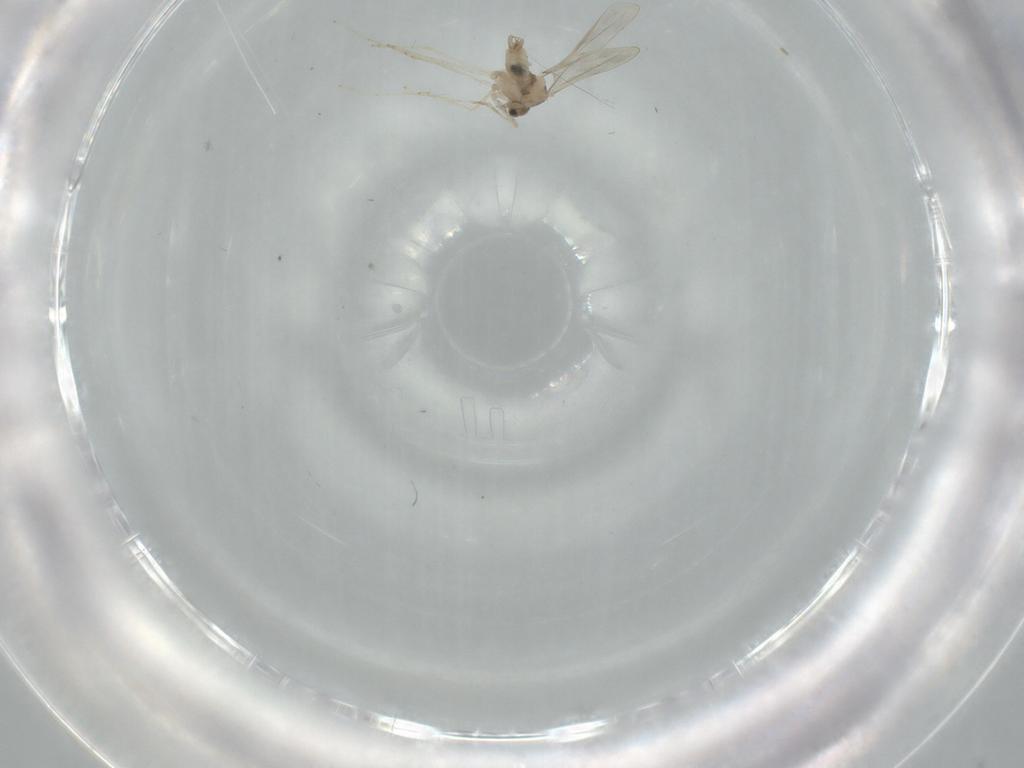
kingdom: Animalia
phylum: Arthropoda
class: Insecta
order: Diptera
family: Cecidomyiidae
